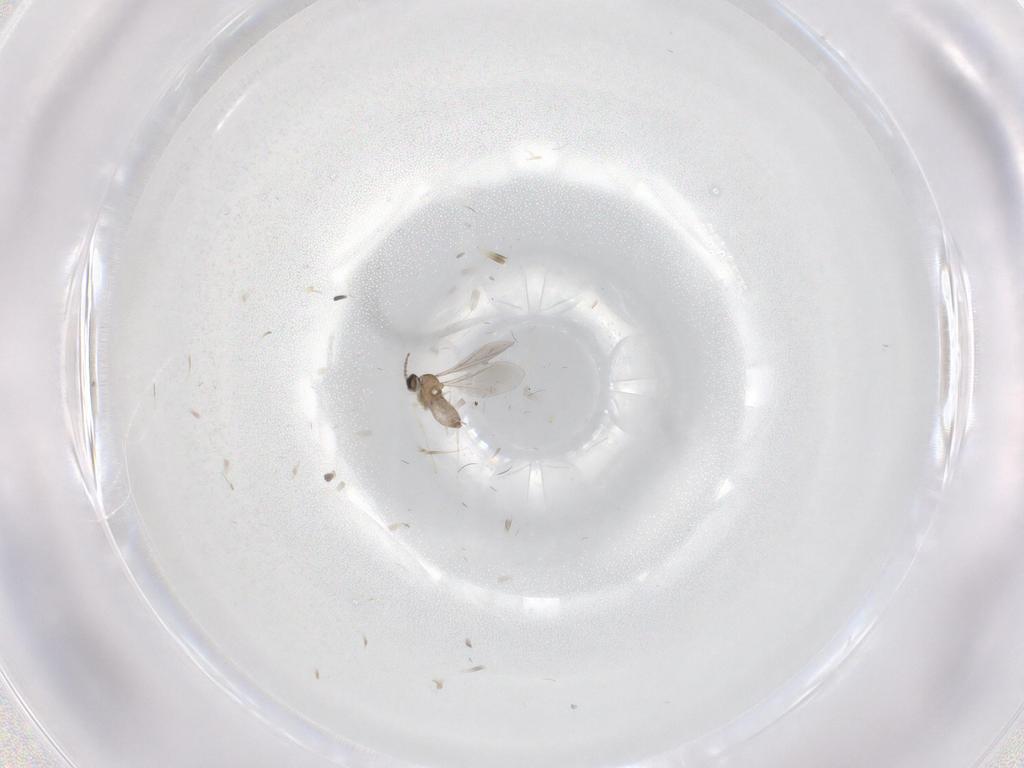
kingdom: Animalia
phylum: Arthropoda
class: Insecta
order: Diptera
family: Cecidomyiidae
